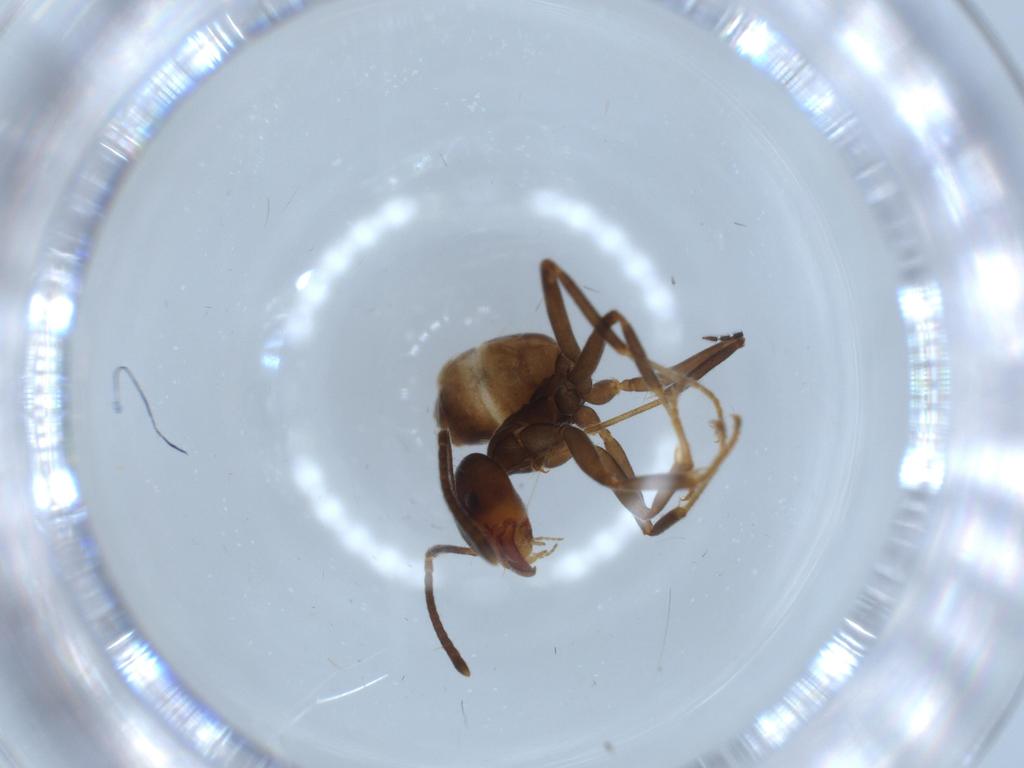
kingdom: Animalia
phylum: Arthropoda
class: Insecta
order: Hymenoptera
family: Formicidae
